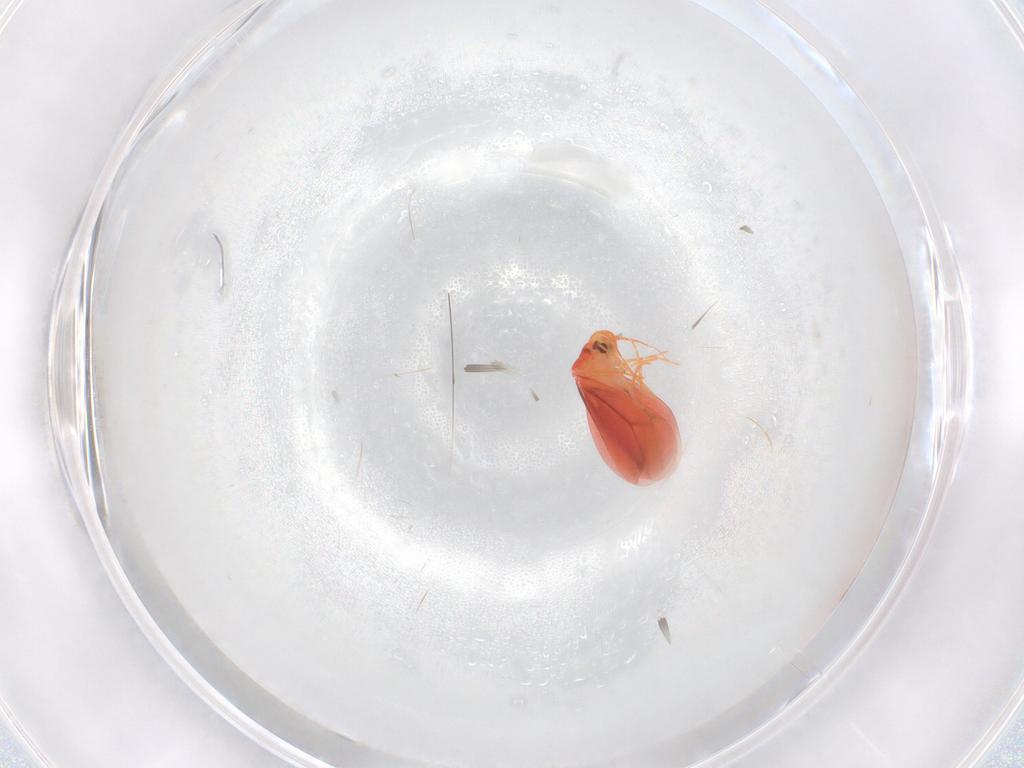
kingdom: Animalia
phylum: Arthropoda
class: Insecta
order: Hemiptera
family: Aleyrodidae
